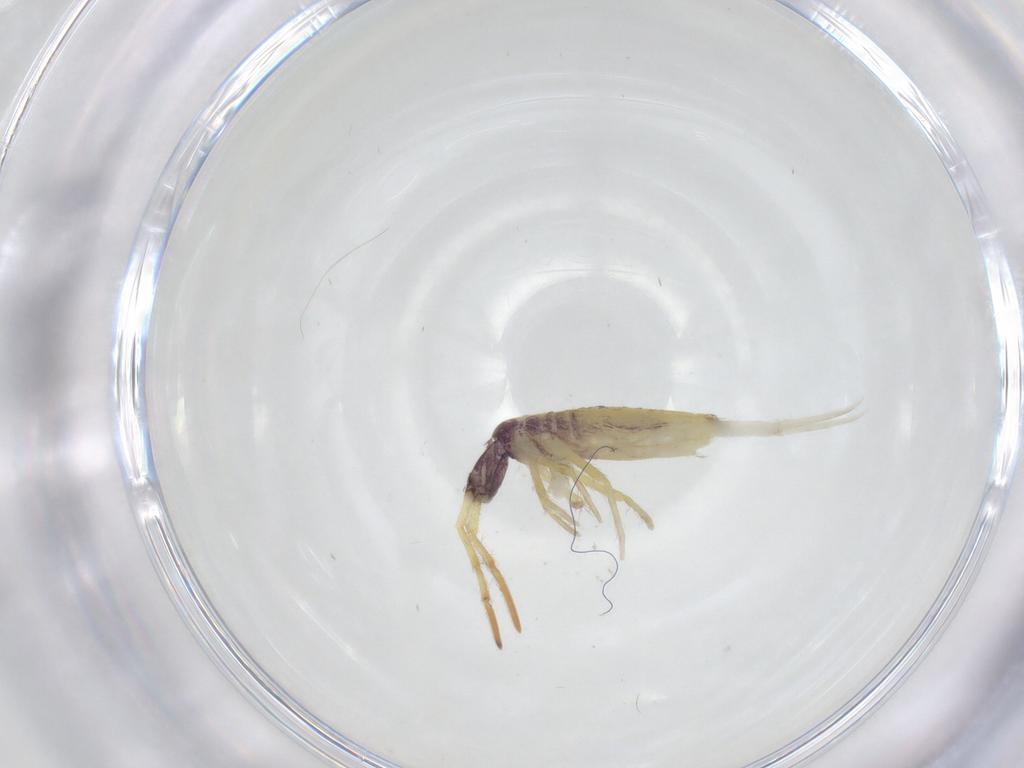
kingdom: Animalia
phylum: Arthropoda
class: Collembola
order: Entomobryomorpha
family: Entomobryidae
